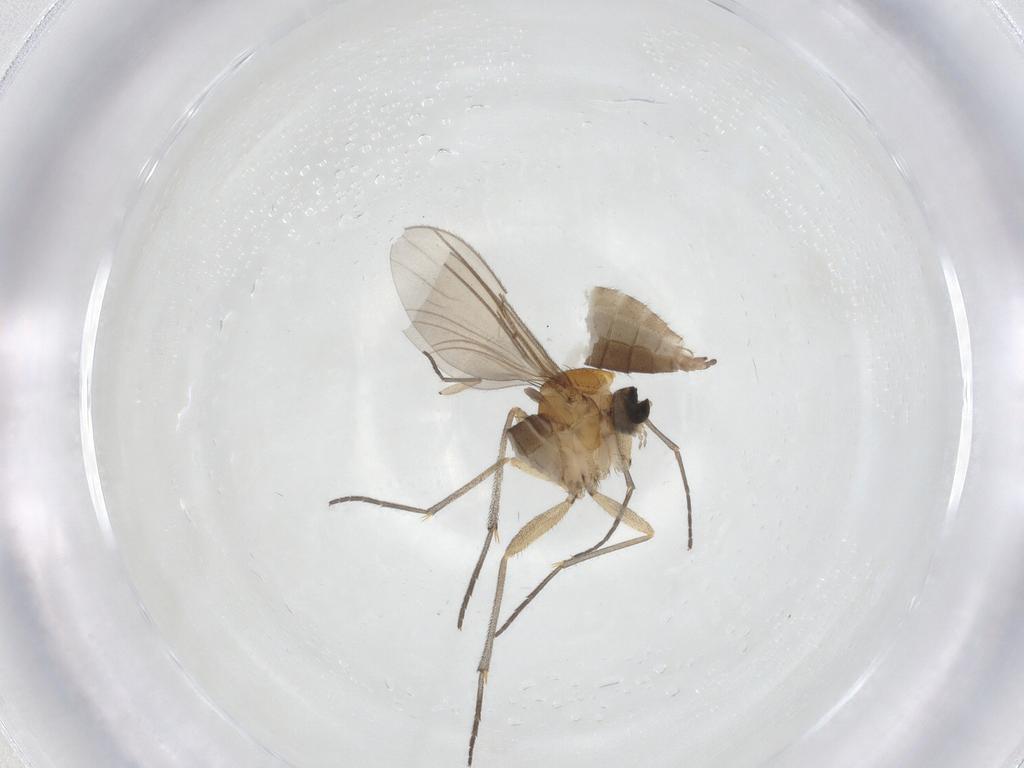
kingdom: Animalia
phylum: Arthropoda
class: Insecta
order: Diptera
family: Sciaridae
